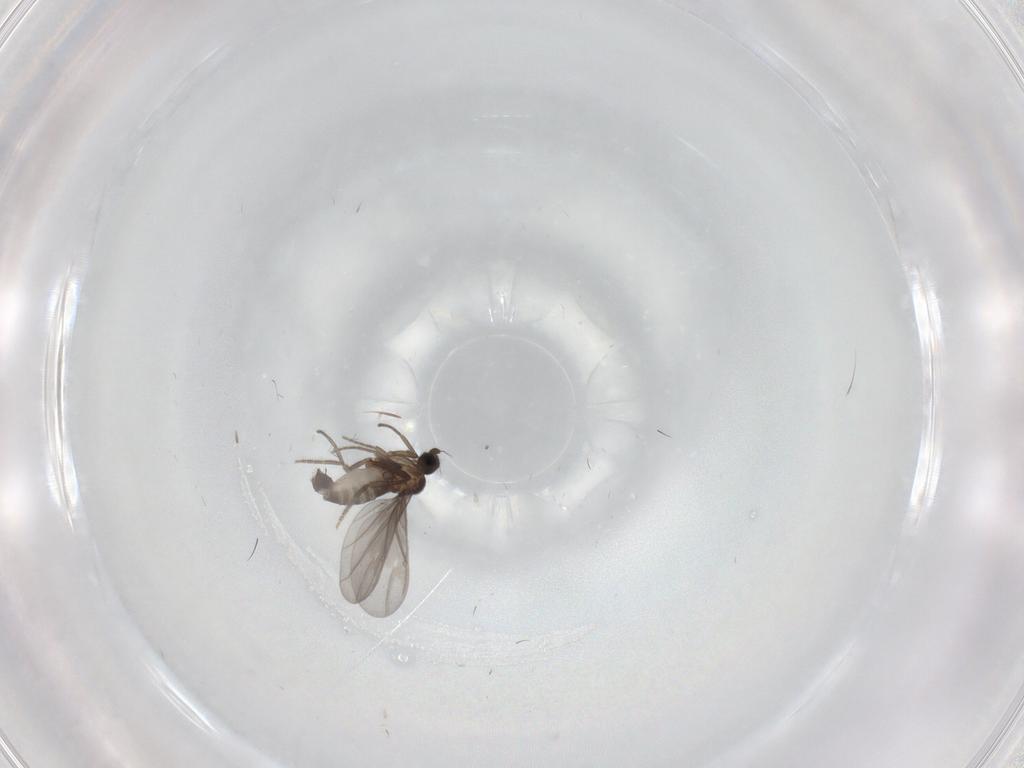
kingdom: Animalia
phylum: Arthropoda
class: Insecta
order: Diptera
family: Phoridae
